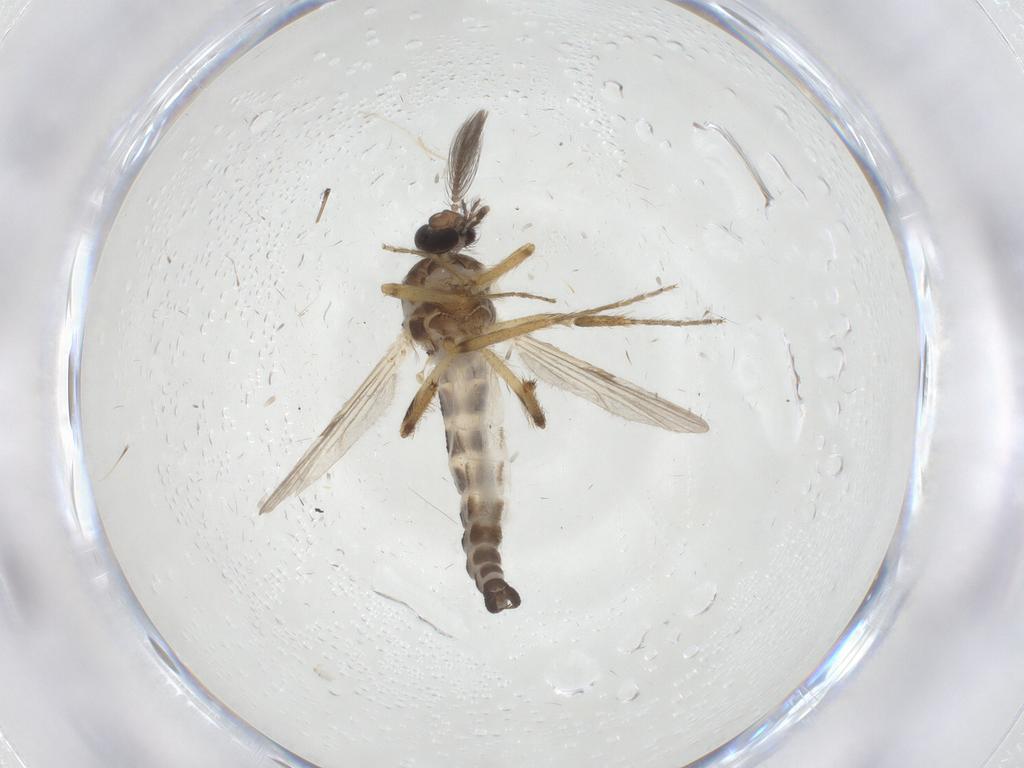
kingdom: Animalia
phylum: Arthropoda
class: Insecta
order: Diptera
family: Ceratopogonidae
